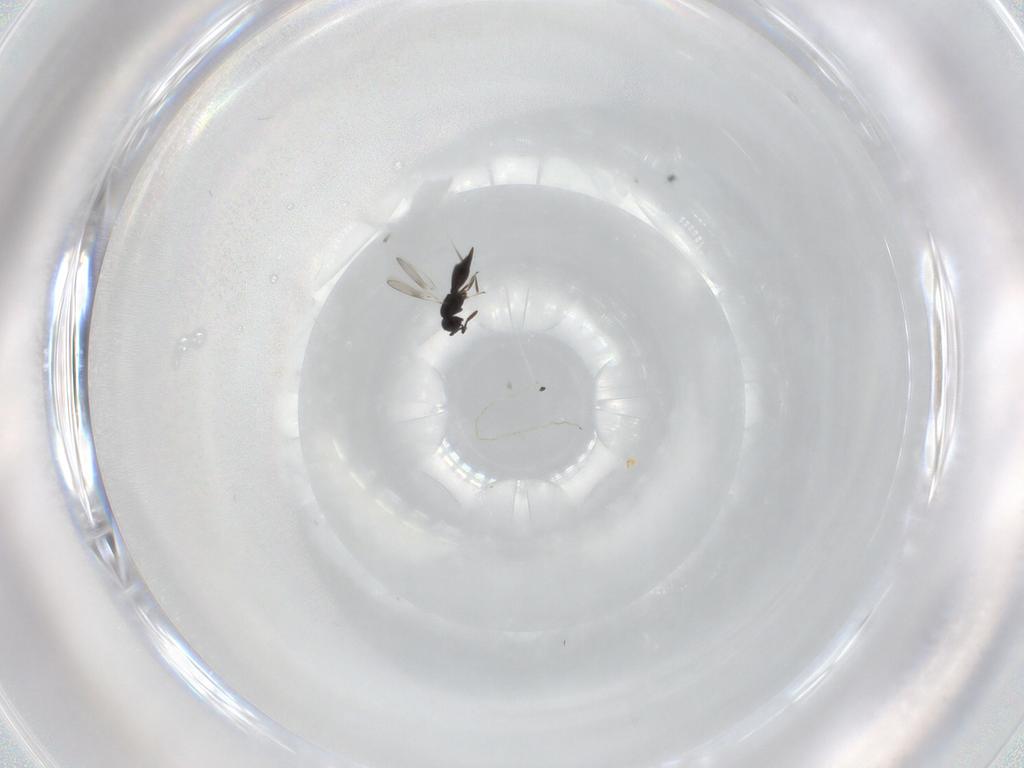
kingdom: Animalia
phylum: Arthropoda
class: Insecta
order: Hymenoptera
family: Scelionidae
